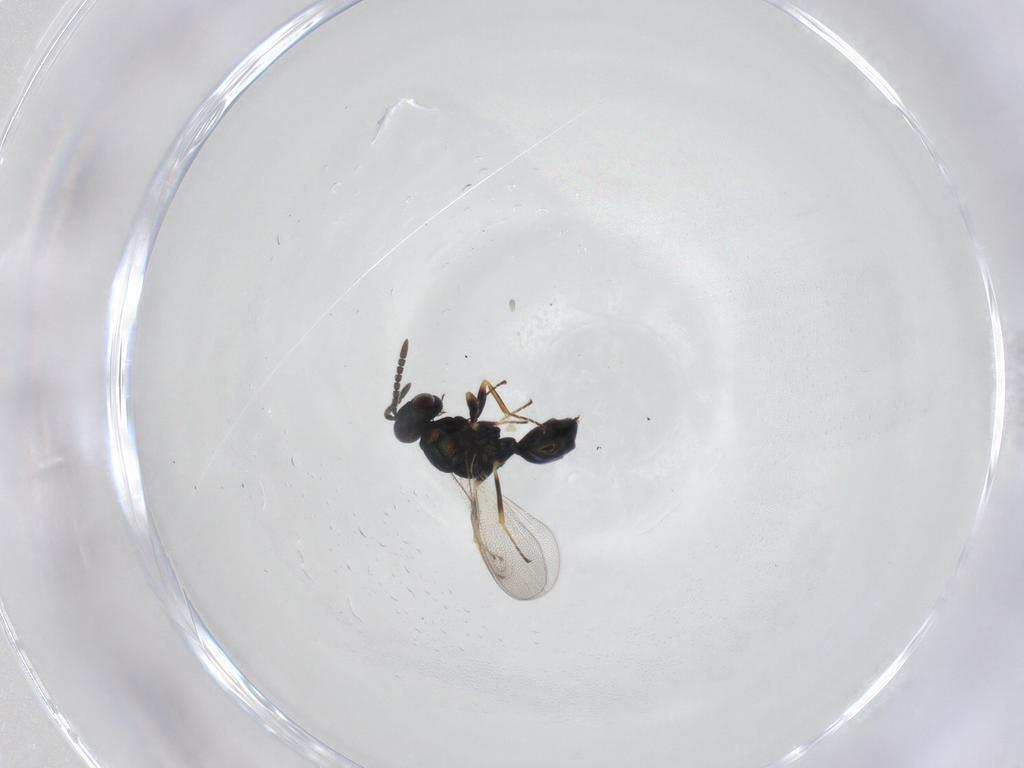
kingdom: Animalia
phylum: Arthropoda
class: Insecta
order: Hymenoptera
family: Pteromalidae
